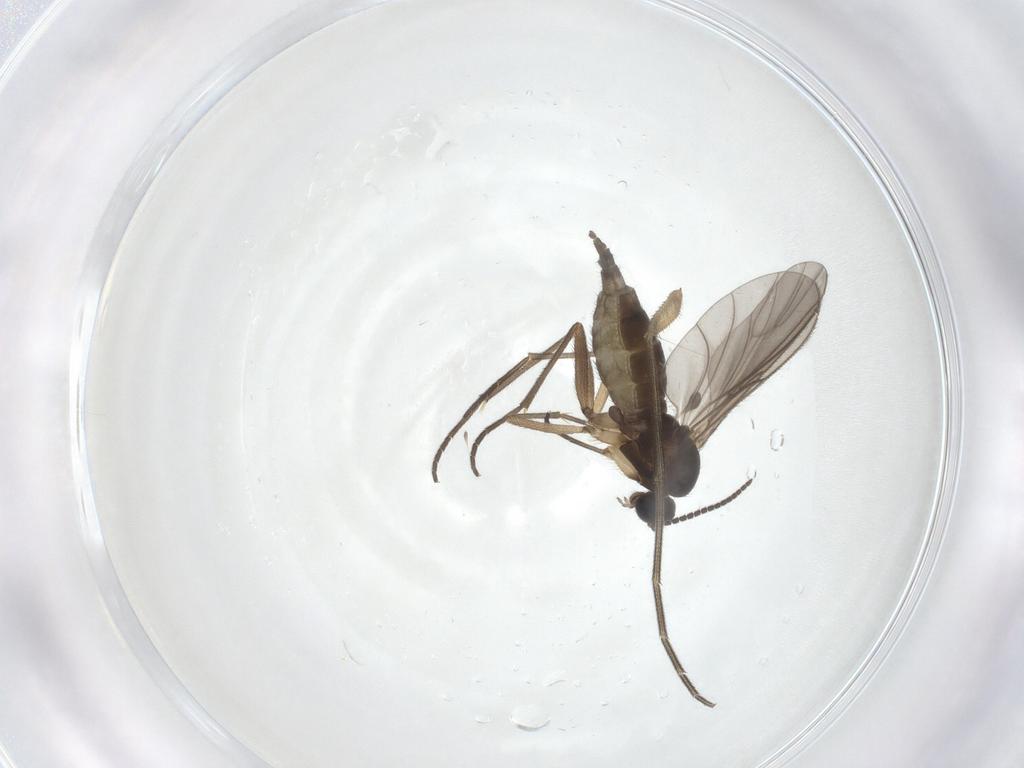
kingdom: Animalia
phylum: Arthropoda
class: Insecta
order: Diptera
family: Sciaridae
